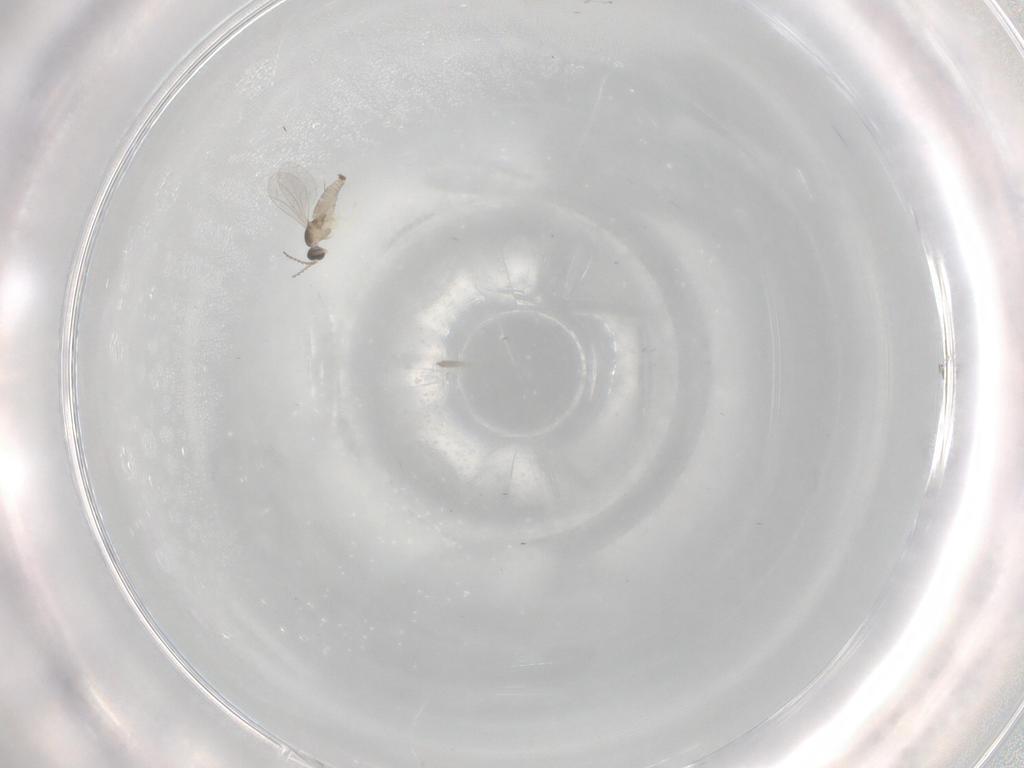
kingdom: Animalia
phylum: Arthropoda
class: Insecta
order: Diptera
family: Cecidomyiidae
